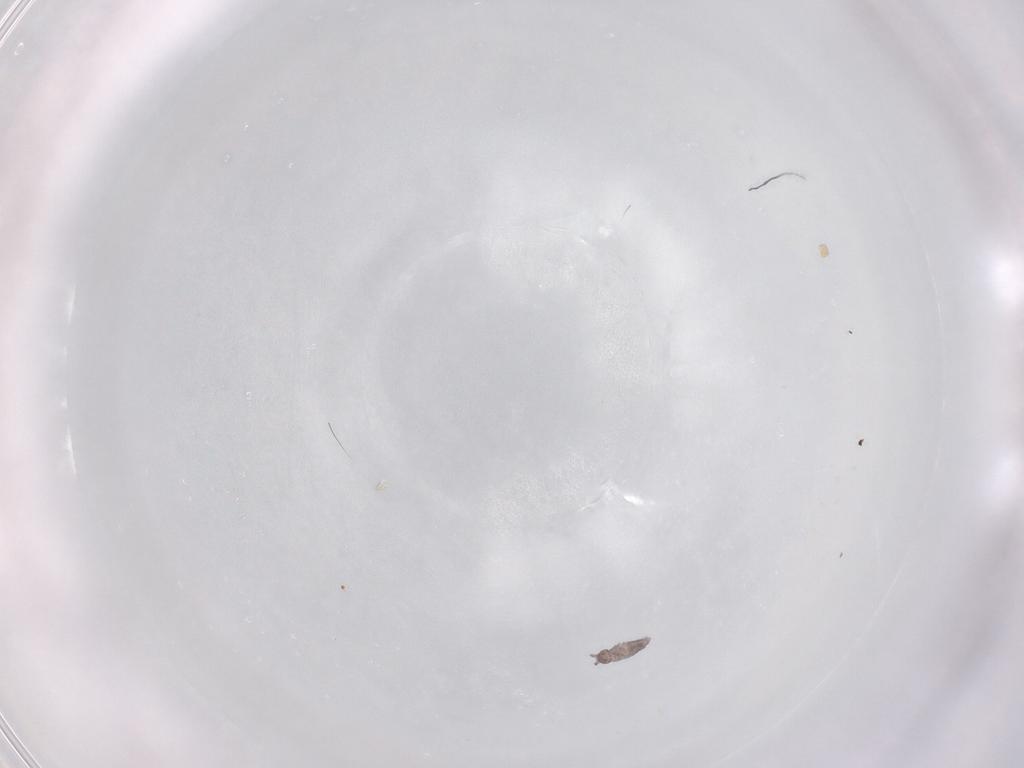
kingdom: Animalia
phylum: Arthropoda
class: Collembola
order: Poduromorpha
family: Hypogastruridae
